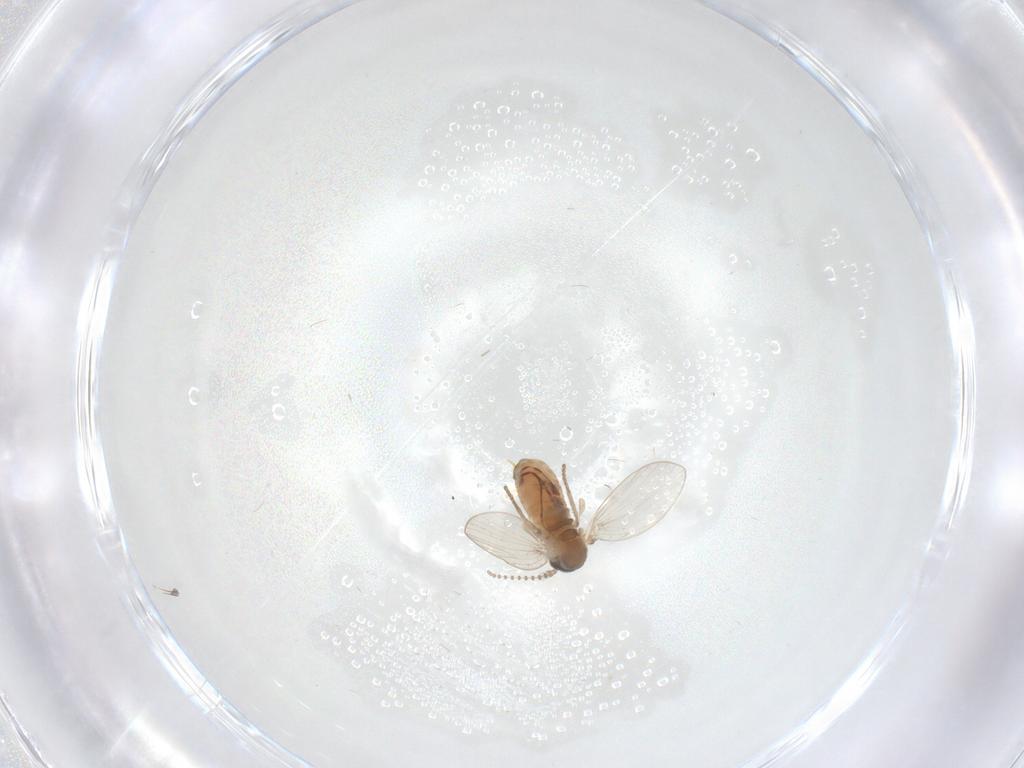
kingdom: Animalia
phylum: Arthropoda
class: Insecta
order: Diptera
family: Psychodidae
